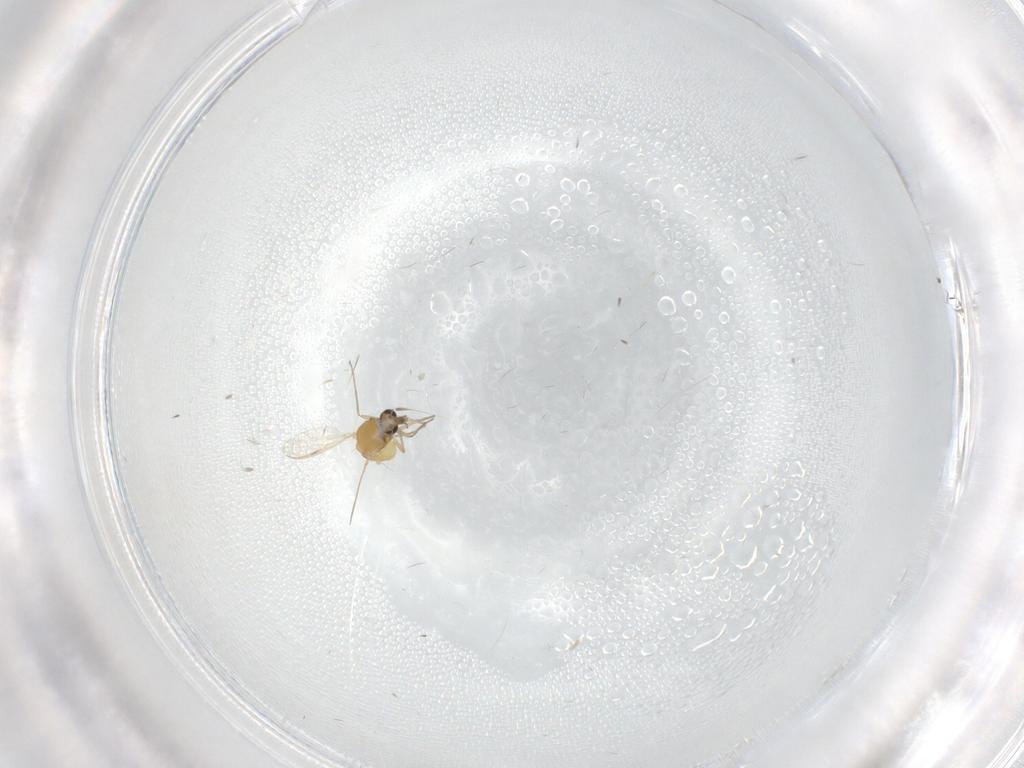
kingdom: Animalia
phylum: Arthropoda
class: Insecta
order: Diptera
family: Chironomidae
